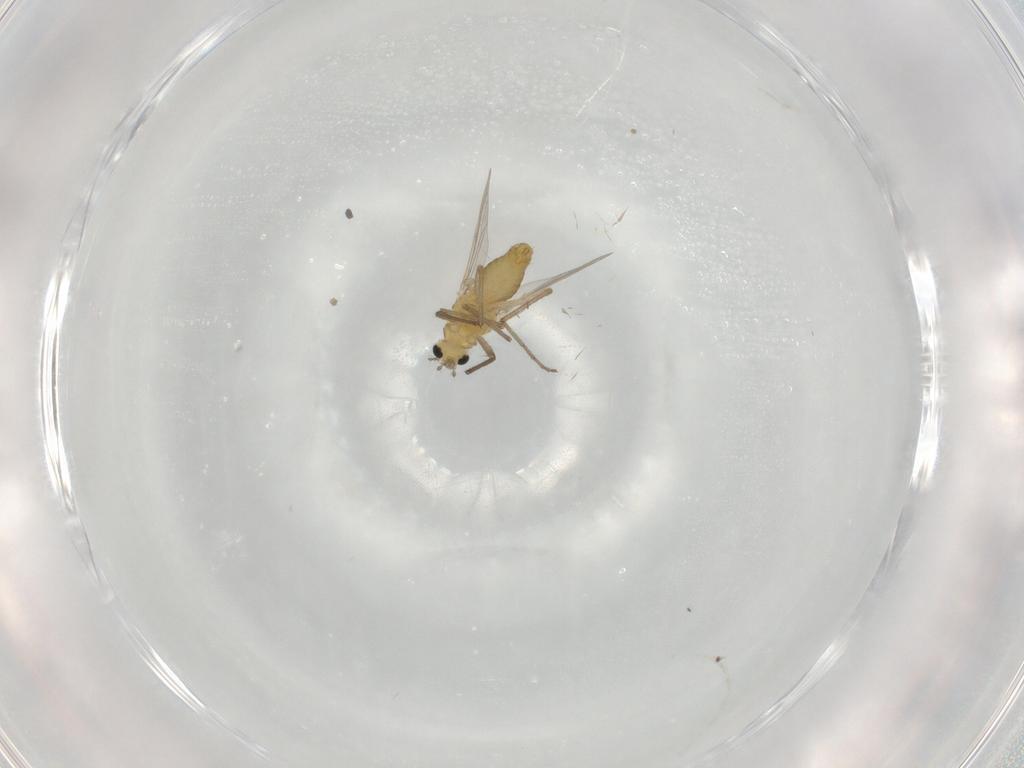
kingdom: Animalia
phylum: Arthropoda
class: Insecta
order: Diptera
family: Chironomidae
